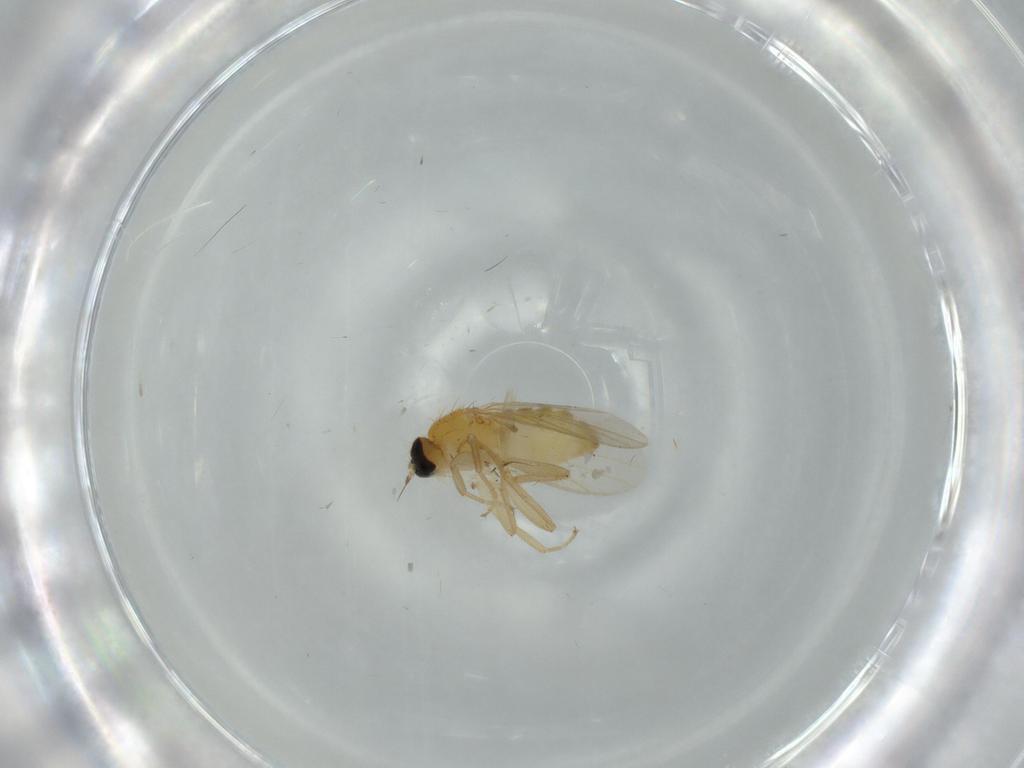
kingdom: Animalia
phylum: Arthropoda
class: Insecta
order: Diptera
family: Hybotidae
